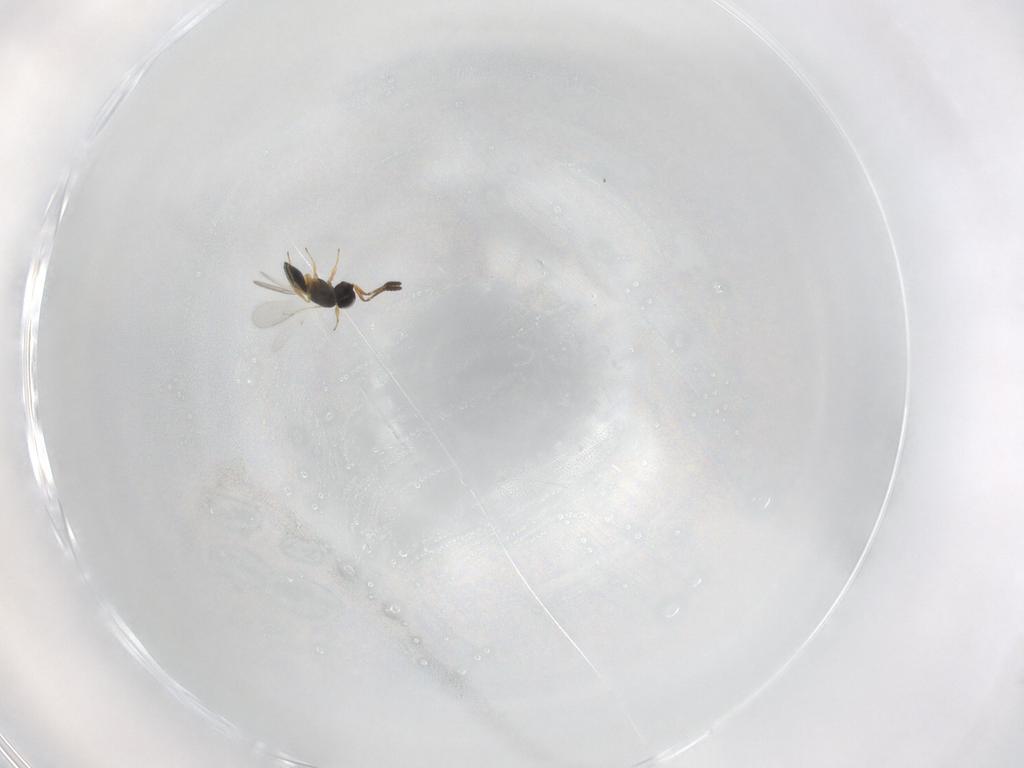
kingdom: Animalia
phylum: Arthropoda
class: Insecta
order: Hymenoptera
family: Scelionidae
